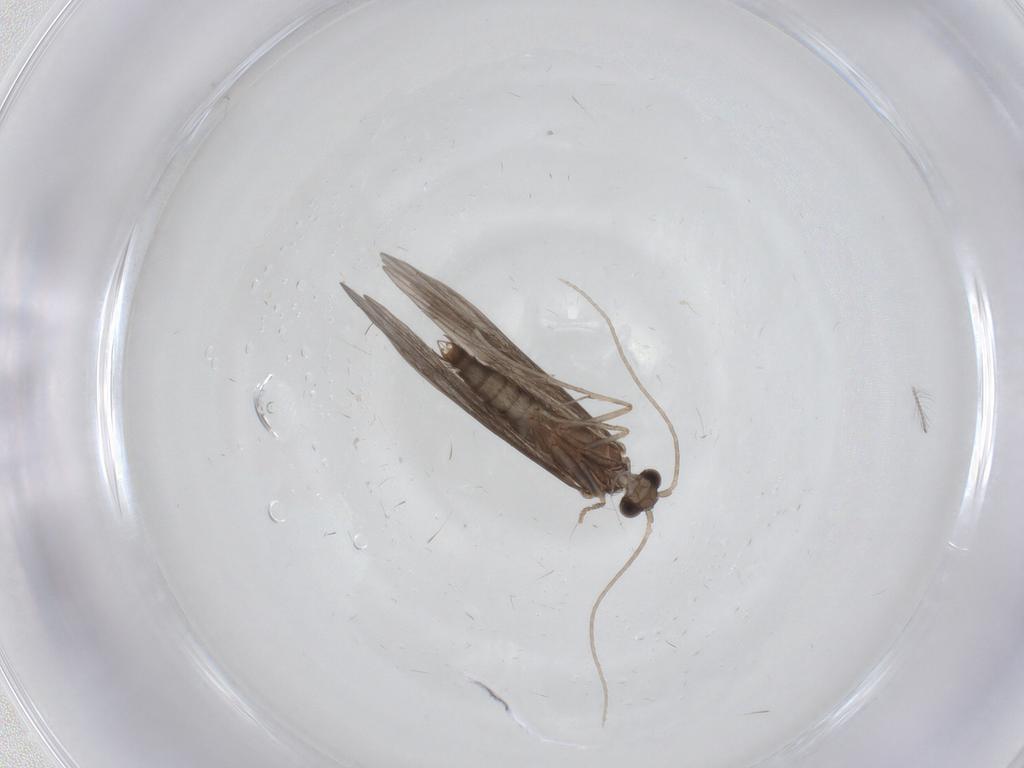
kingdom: Animalia
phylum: Arthropoda
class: Insecta
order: Trichoptera
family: Xiphocentronidae
